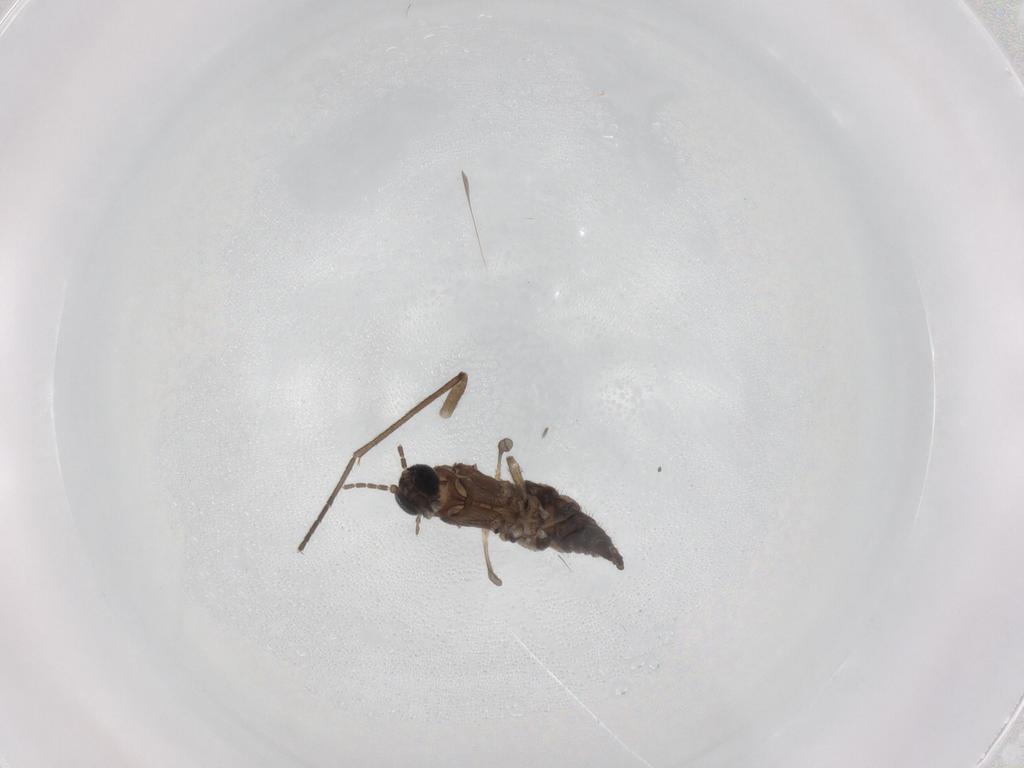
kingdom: Animalia
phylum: Arthropoda
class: Insecta
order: Diptera
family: Sciaridae
